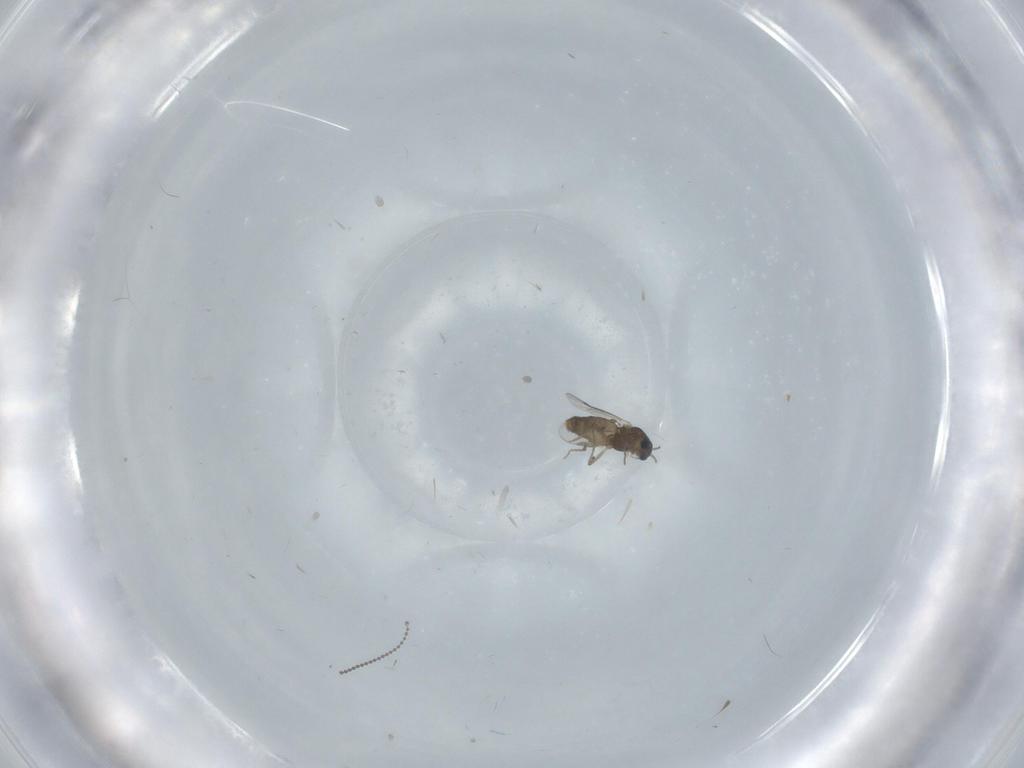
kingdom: Animalia
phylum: Arthropoda
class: Insecta
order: Diptera
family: Chironomidae
